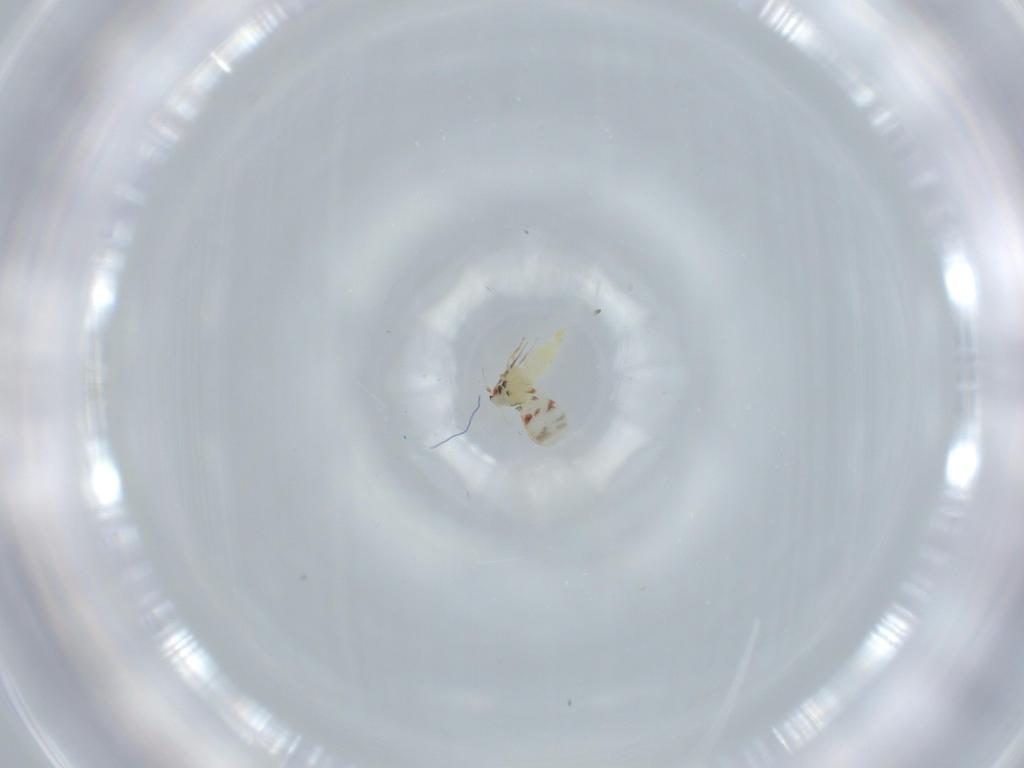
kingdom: Animalia
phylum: Arthropoda
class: Insecta
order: Hemiptera
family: Aleyrodidae
